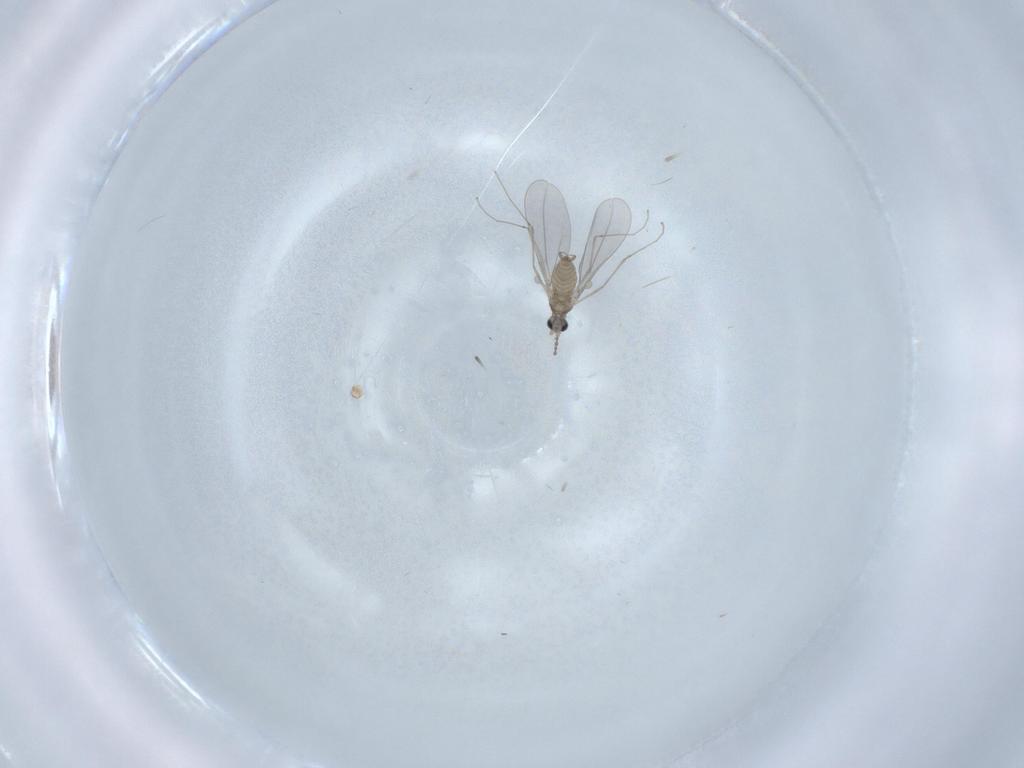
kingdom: Animalia
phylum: Arthropoda
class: Insecta
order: Diptera
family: Cecidomyiidae
